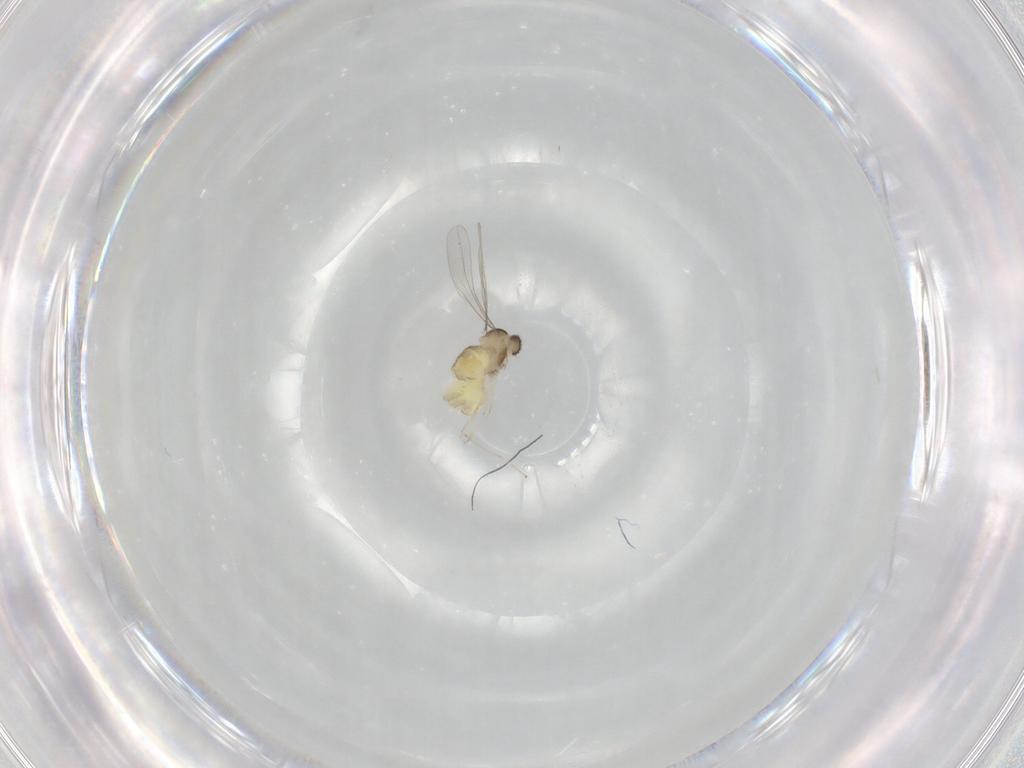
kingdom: Animalia
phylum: Arthropoda
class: Insecta
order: Diptera
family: Cecidomyiidae
